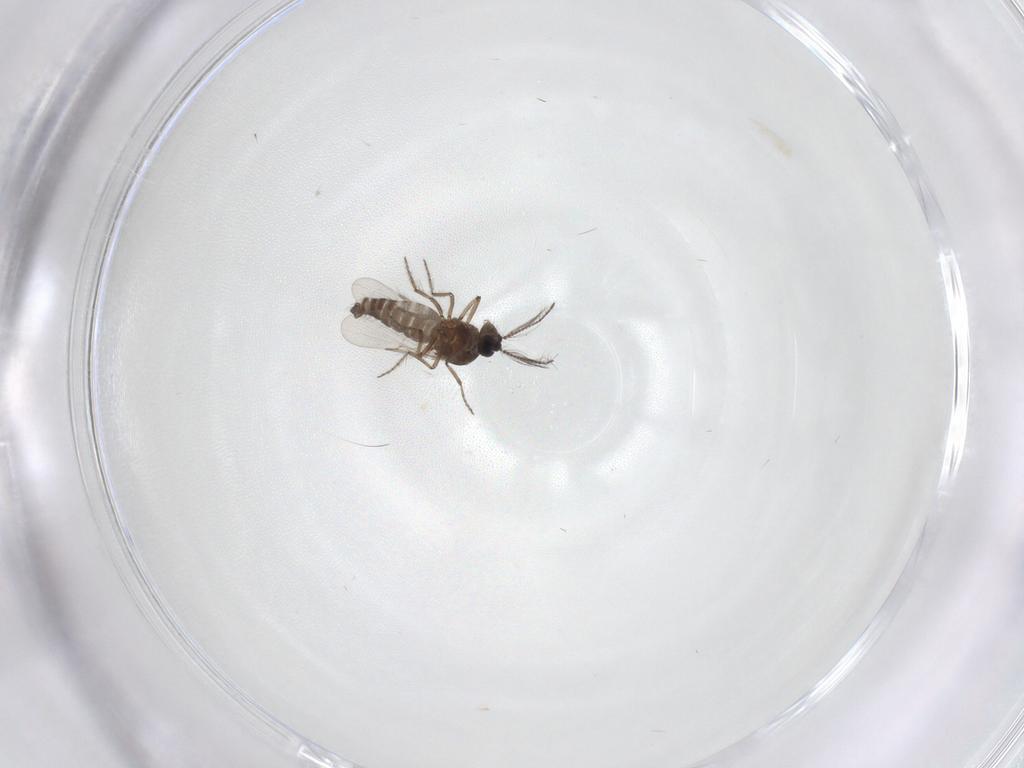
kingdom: Animalia
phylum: Arthropoda
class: Insecta
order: Diptera
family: Ceratopogonidae
